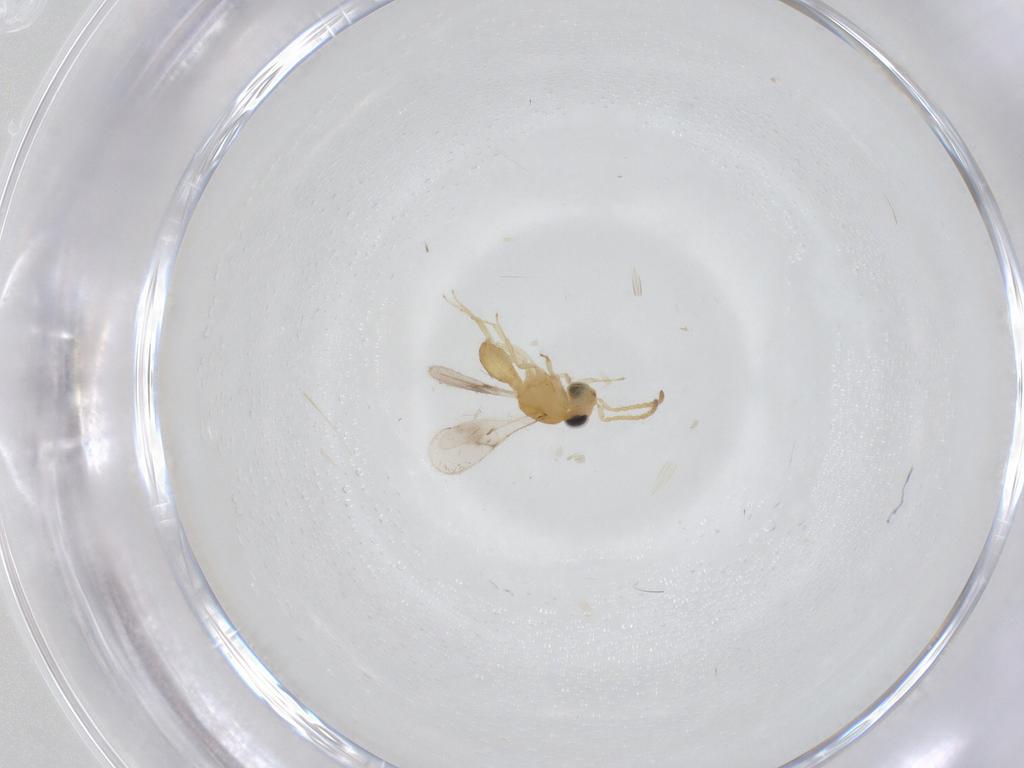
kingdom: Animalia
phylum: Arthropoda
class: Insecta
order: Hymenoptera
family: Scelionidae
